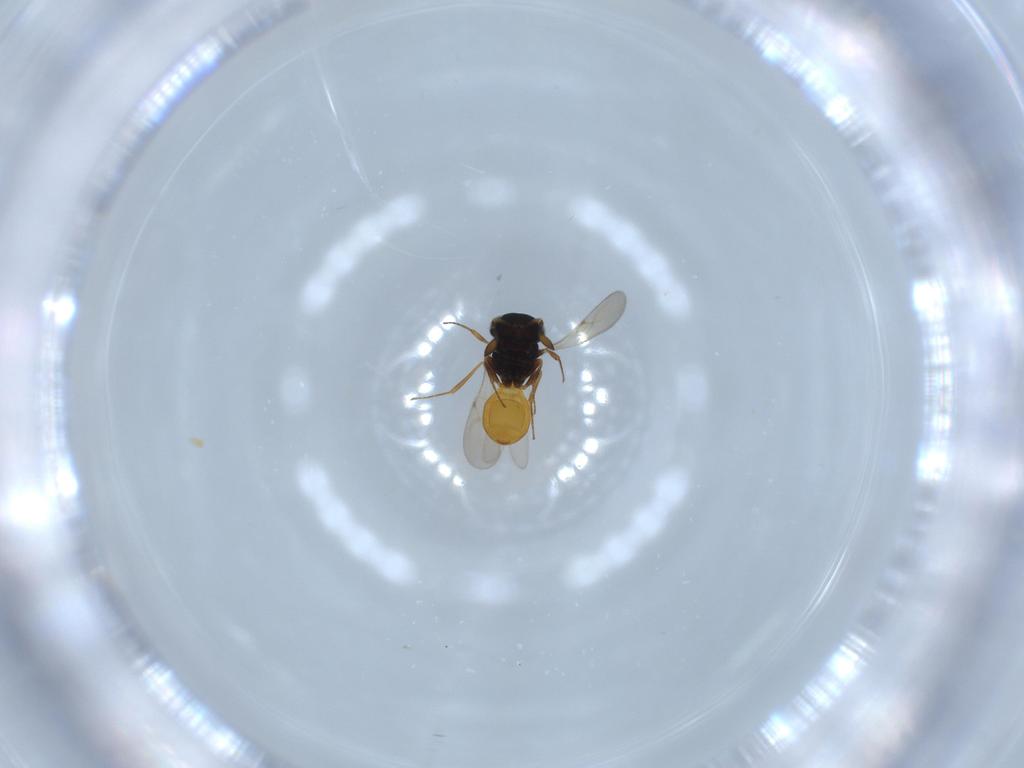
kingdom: Animalia
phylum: Arthropoda
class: Insecta
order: Hymenoptera
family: Scelionidae
